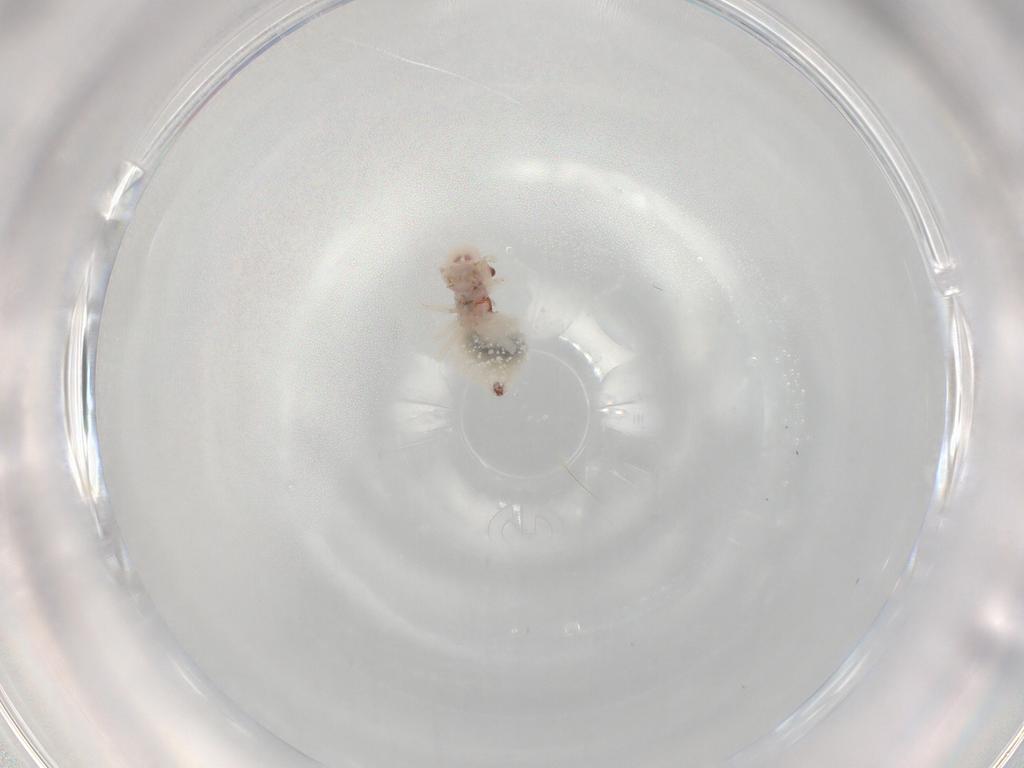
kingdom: Animalia
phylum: Arthropoda
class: Insecta
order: Psocodea
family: Amphipsocidae
